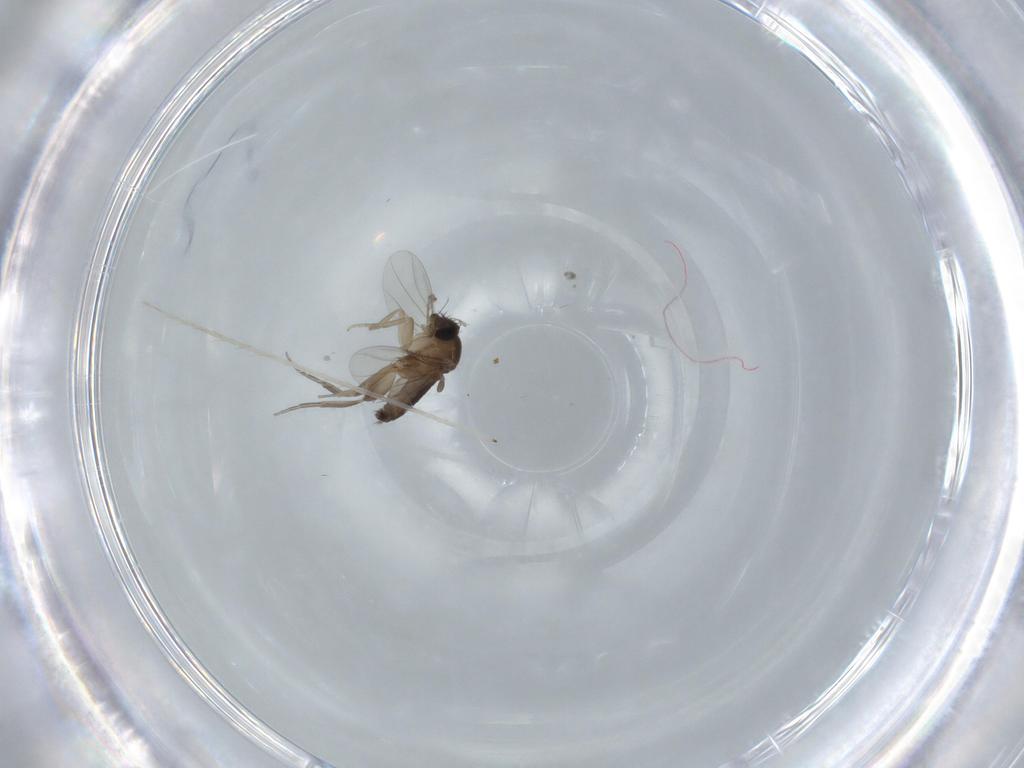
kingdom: Animalia
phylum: Arthropoda
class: Insecta
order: Diptera
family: Phoridae
